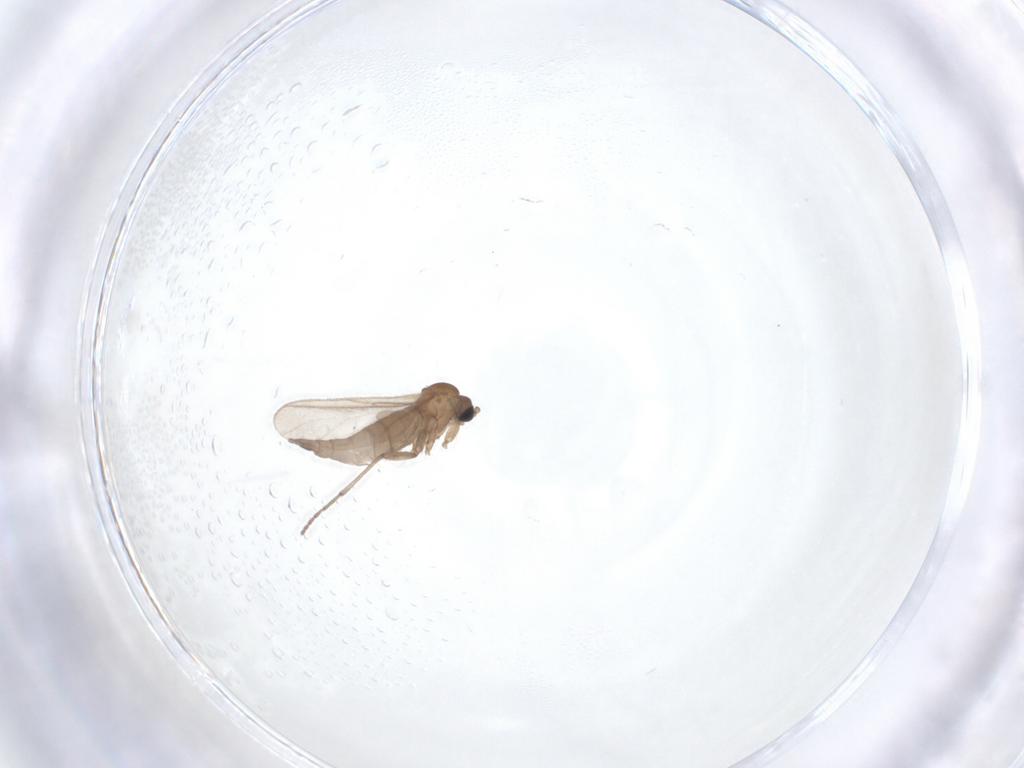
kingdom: Animalia
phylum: Arthropoda
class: Insecta
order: Diptera
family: Sciaridae
